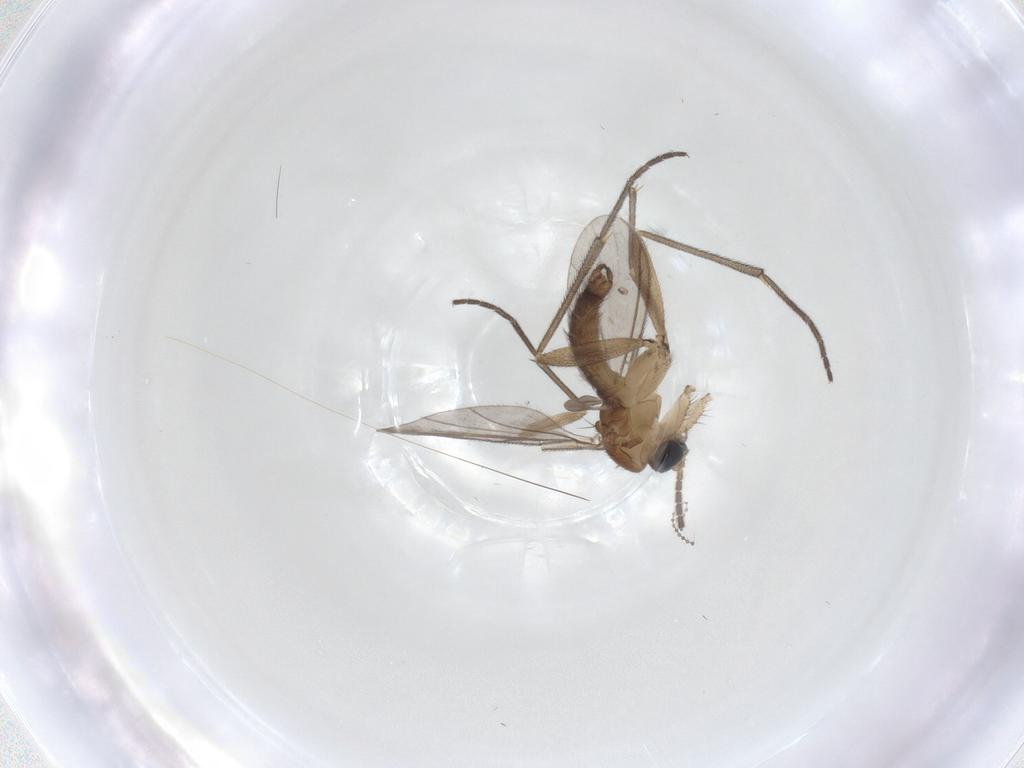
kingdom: Animalia
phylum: Arthropoda
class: Insecta
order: Diptera
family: Sciaridae
